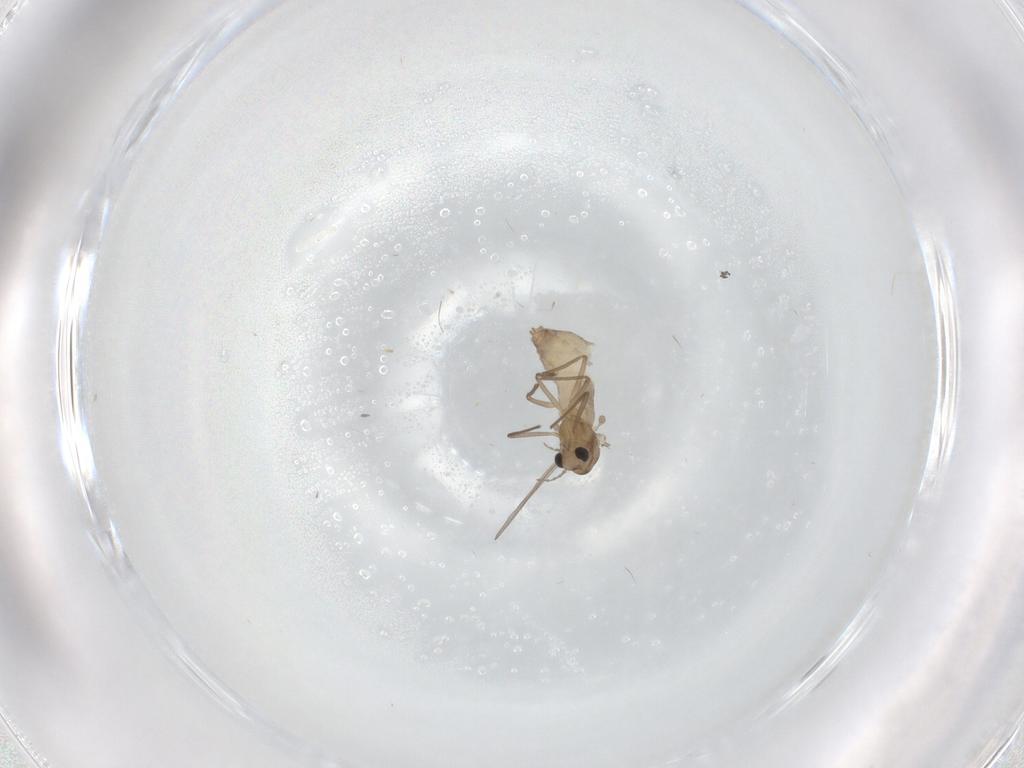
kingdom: Animalia
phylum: Arthropoda
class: Insecta
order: Diptera
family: Chironomidae
